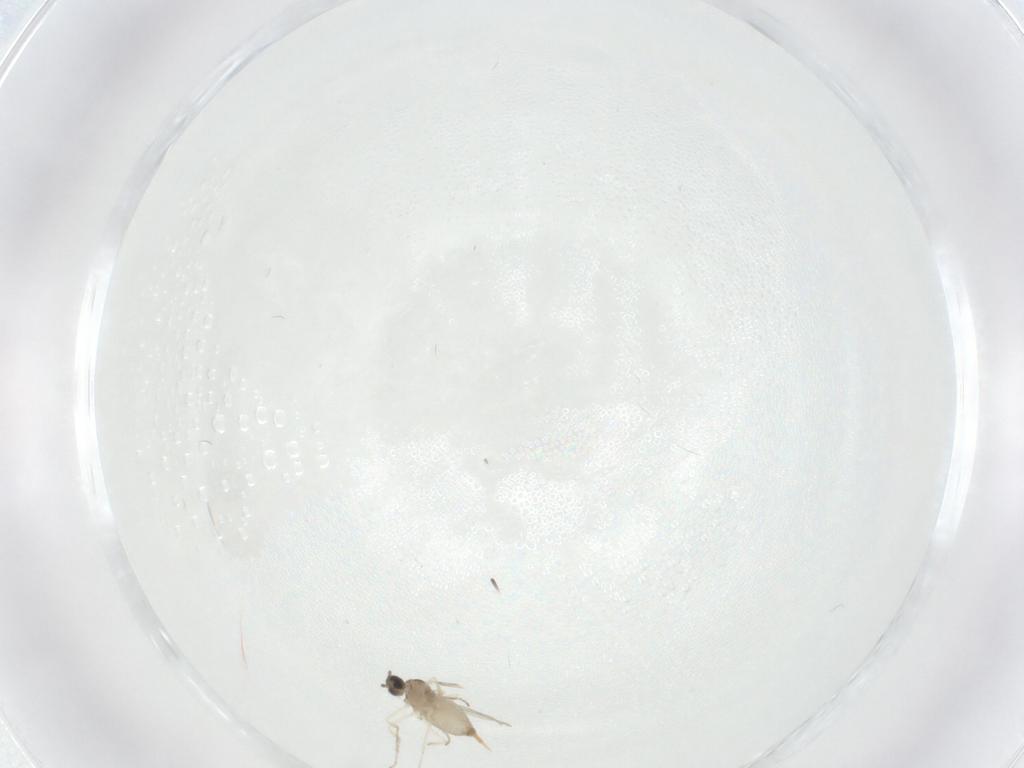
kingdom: Animalia
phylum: Arthropoda
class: Insecta
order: Diptera
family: Cecidomyiidae
